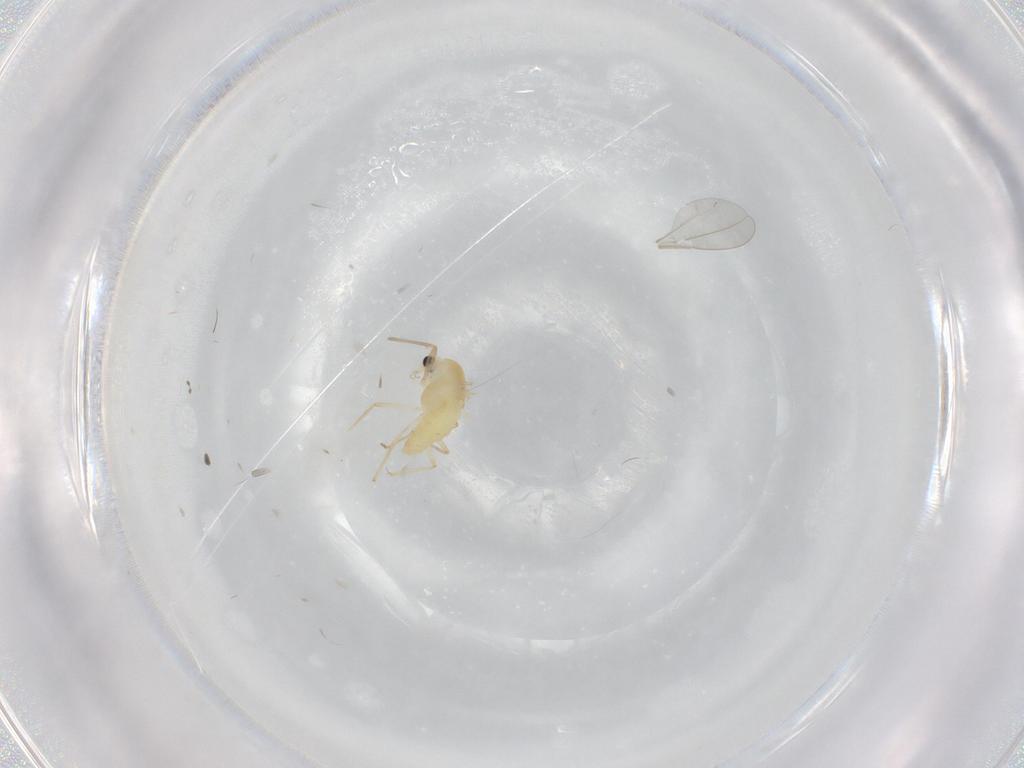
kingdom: Animalia
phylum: Arthropoda
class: Insecta
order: Diptera
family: Chironomidae
